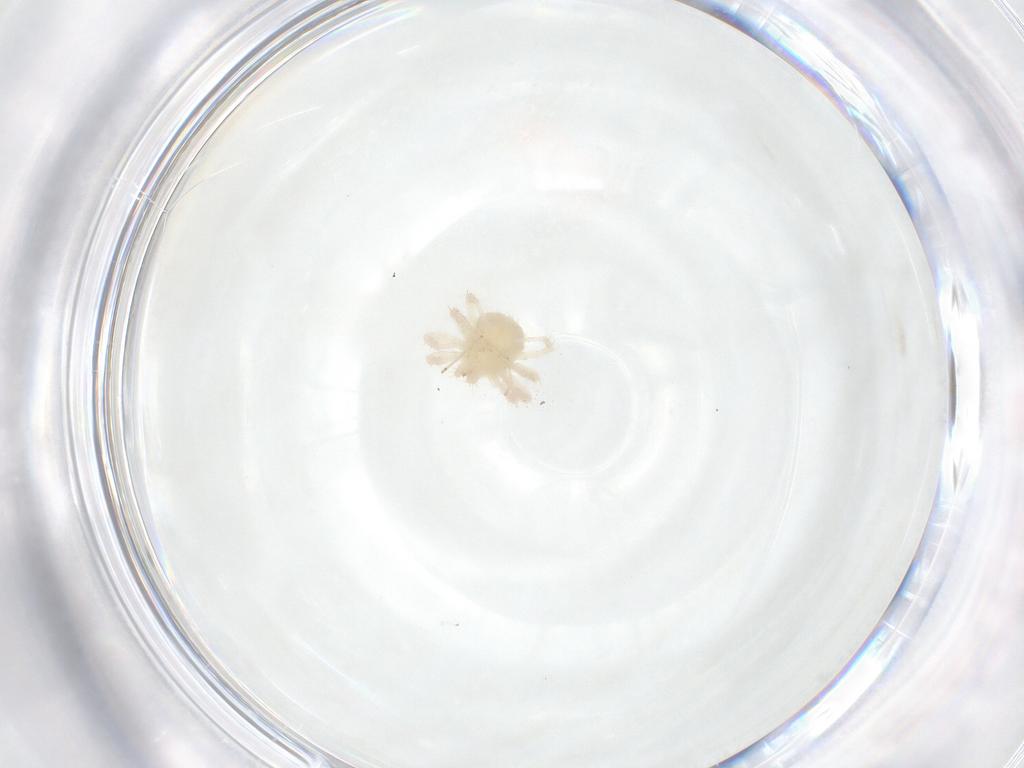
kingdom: Animalia
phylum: Arthropoda
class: Arachnida
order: Trombidiformes
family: Anystidae
